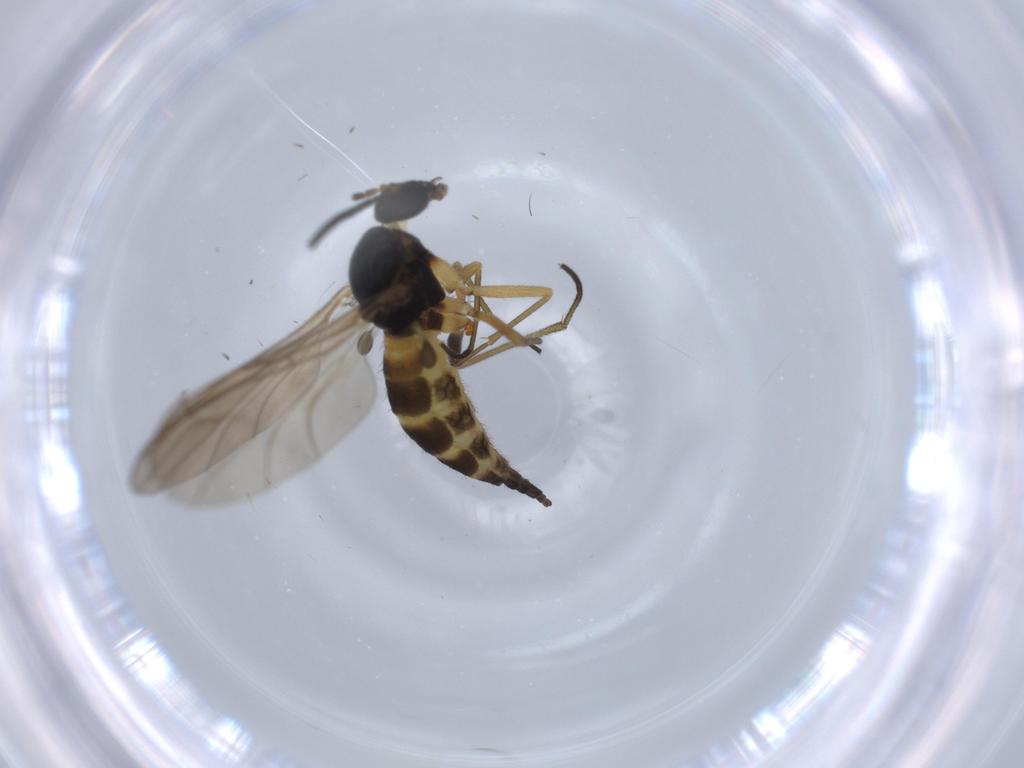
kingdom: Animalia
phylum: Arthropoda
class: Insecta
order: Diptera
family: Sciaridae
